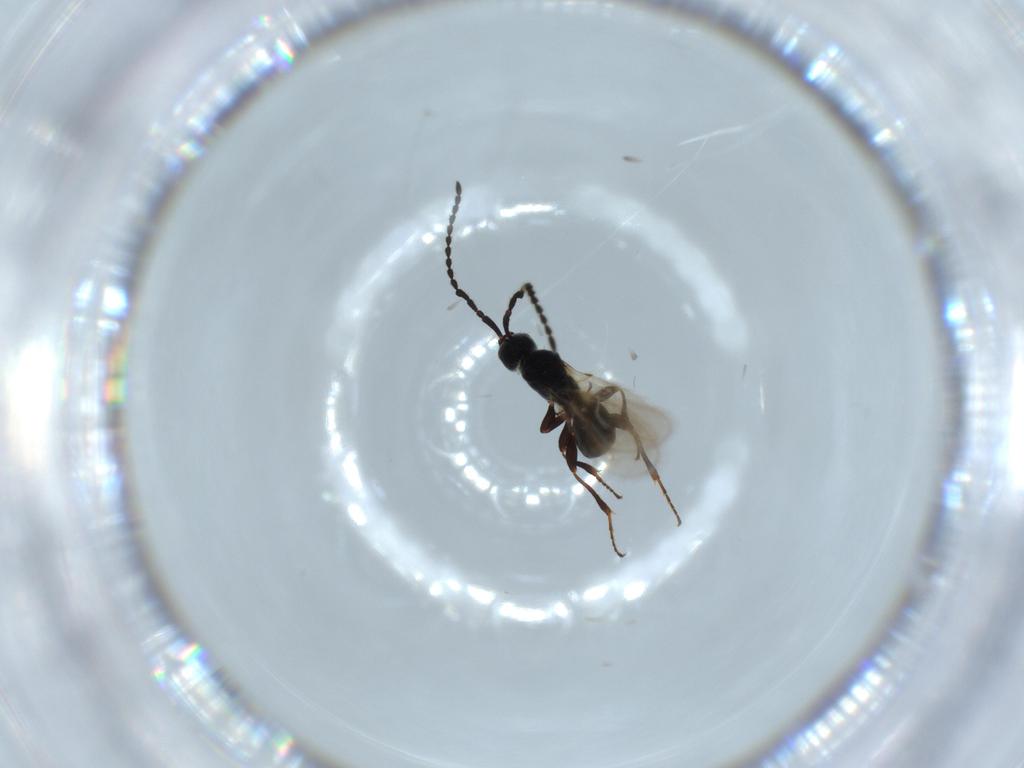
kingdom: Animalia
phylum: Arthropoda
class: Insecta
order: Hymenoptera
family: Diapriidae
